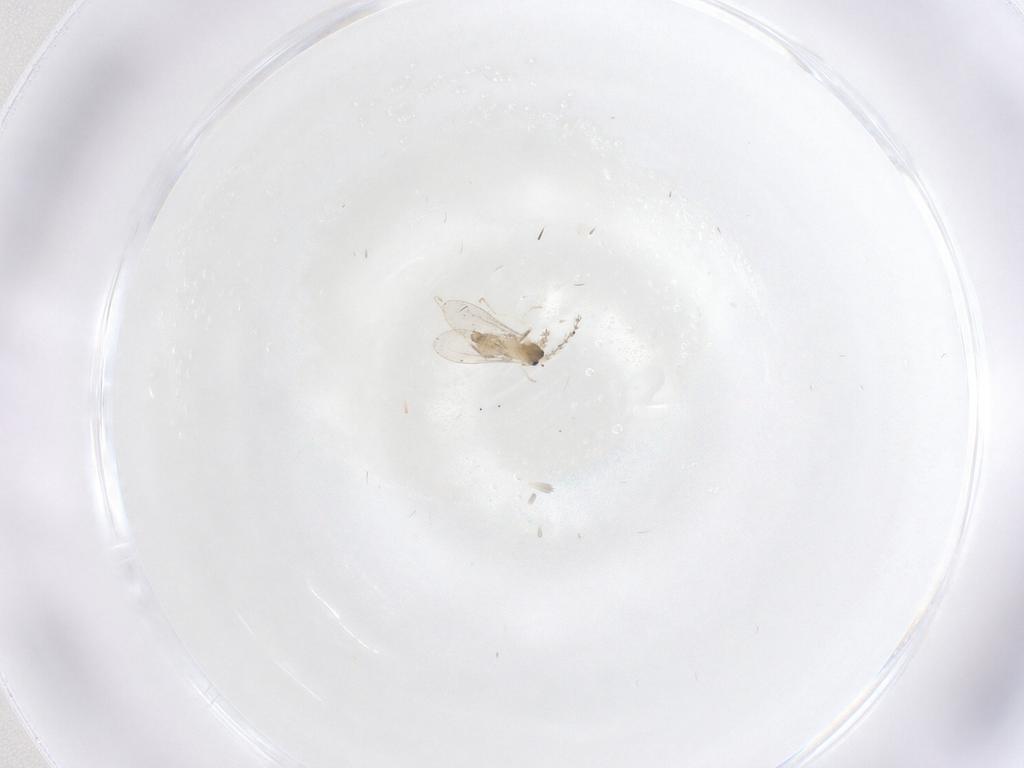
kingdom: Animalia
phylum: Arthropoda
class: Insecta
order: Diptera
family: Cecidomyiidae
